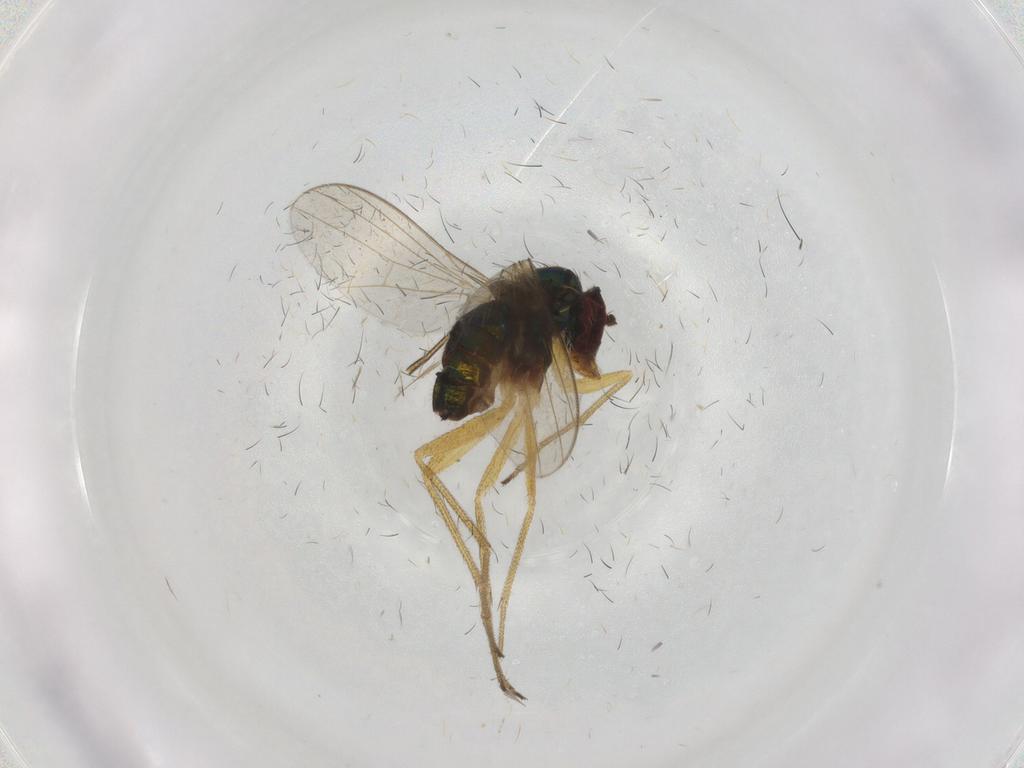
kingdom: Animalia
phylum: Arthropoda
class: Insecta
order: Diptera
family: Dolichopodidae
